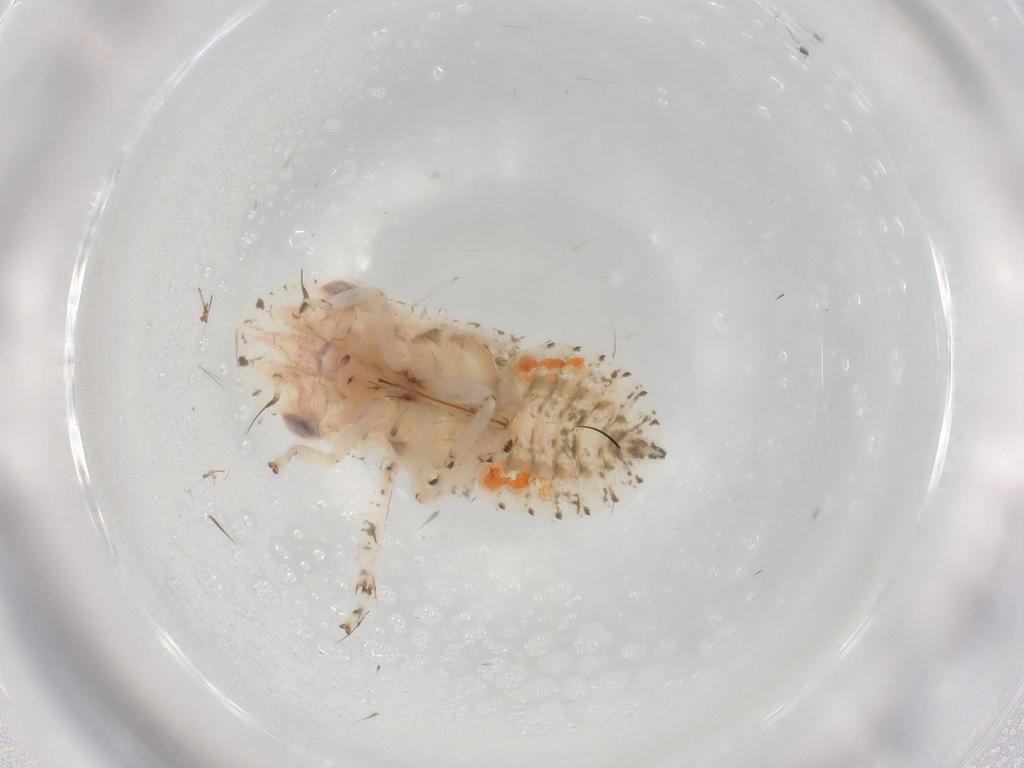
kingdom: Animalia
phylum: Arthropoda
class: Insecta
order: Hemiptera
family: Cicadellidae
